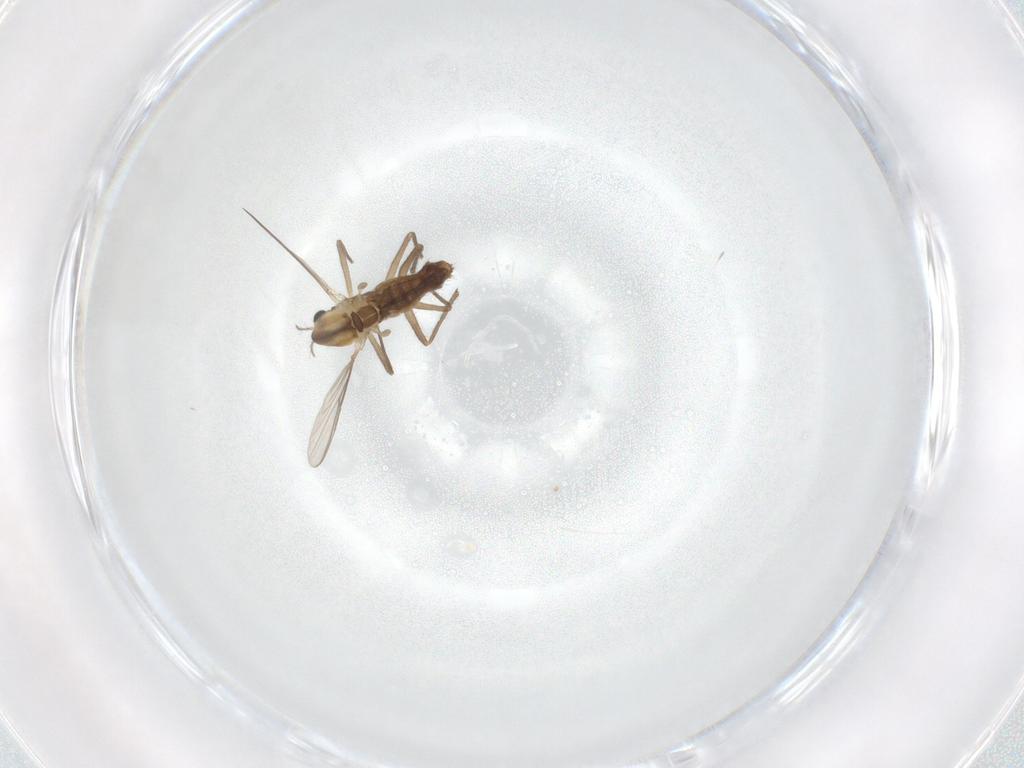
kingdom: Animalia
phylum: Arthropoda
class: Insecta
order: Diptera
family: Chironomidae
